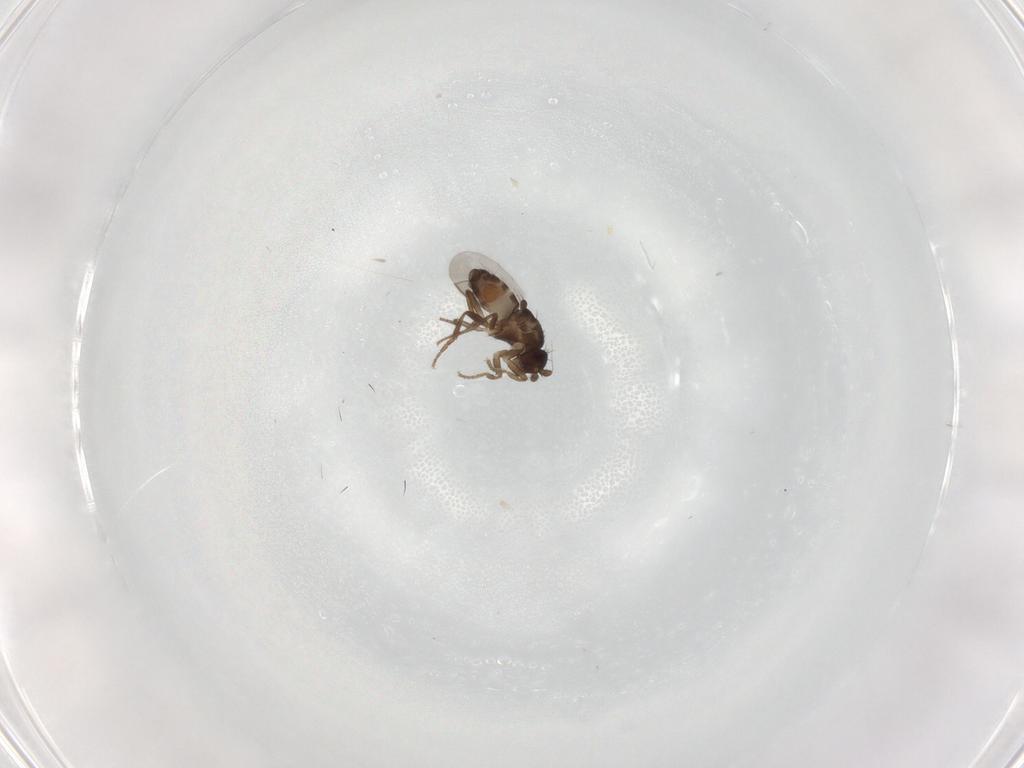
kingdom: Animalia
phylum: Arthropoda
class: Insecta
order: Diptera
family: Sphaeroceridae
